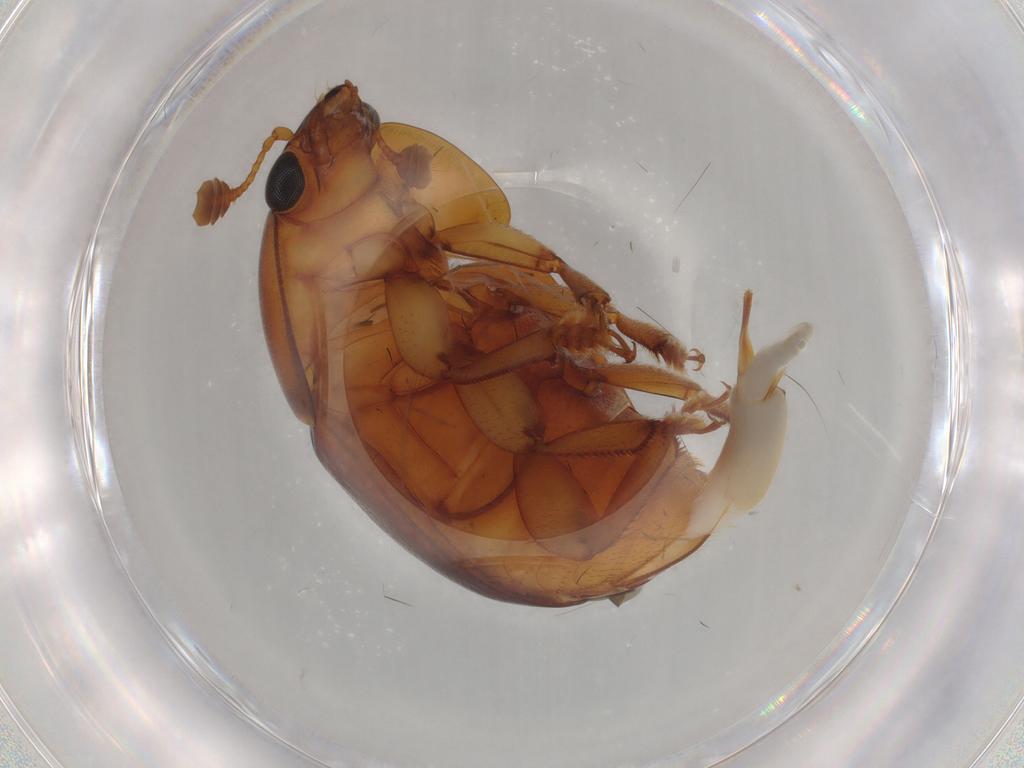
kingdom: Animalia
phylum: Arthropoda
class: Insecta
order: Coleoptera
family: Nitidulidae
